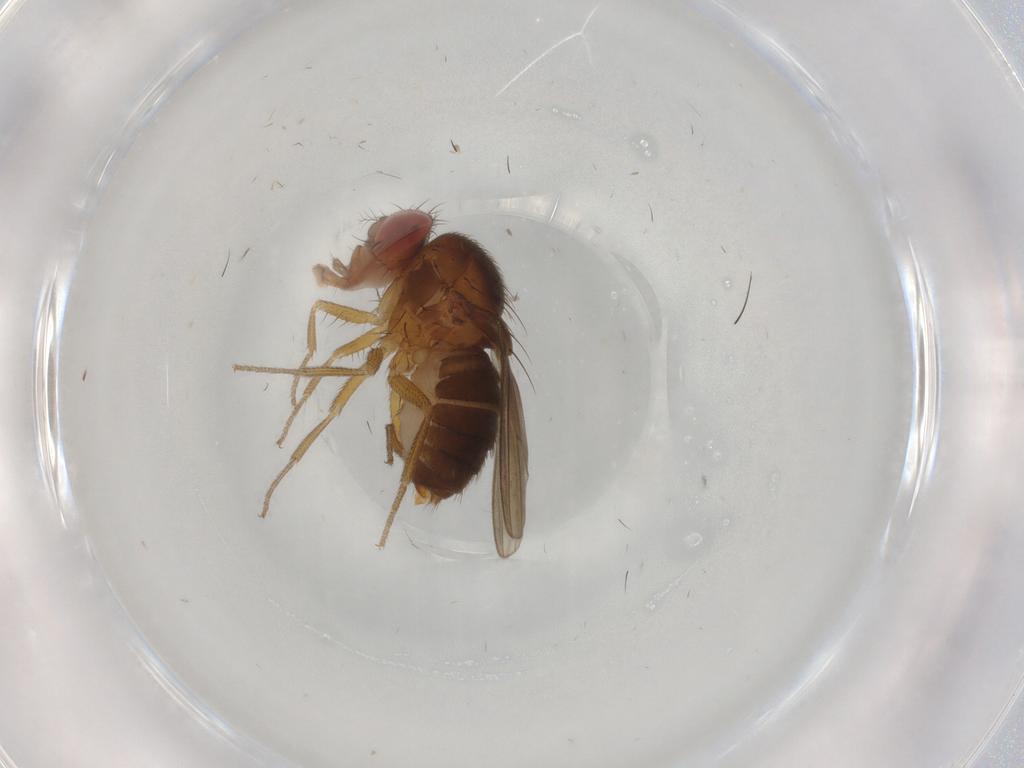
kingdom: Animalia
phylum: Arthropoda
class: Insecta
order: Diptera
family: Drosophilidae
